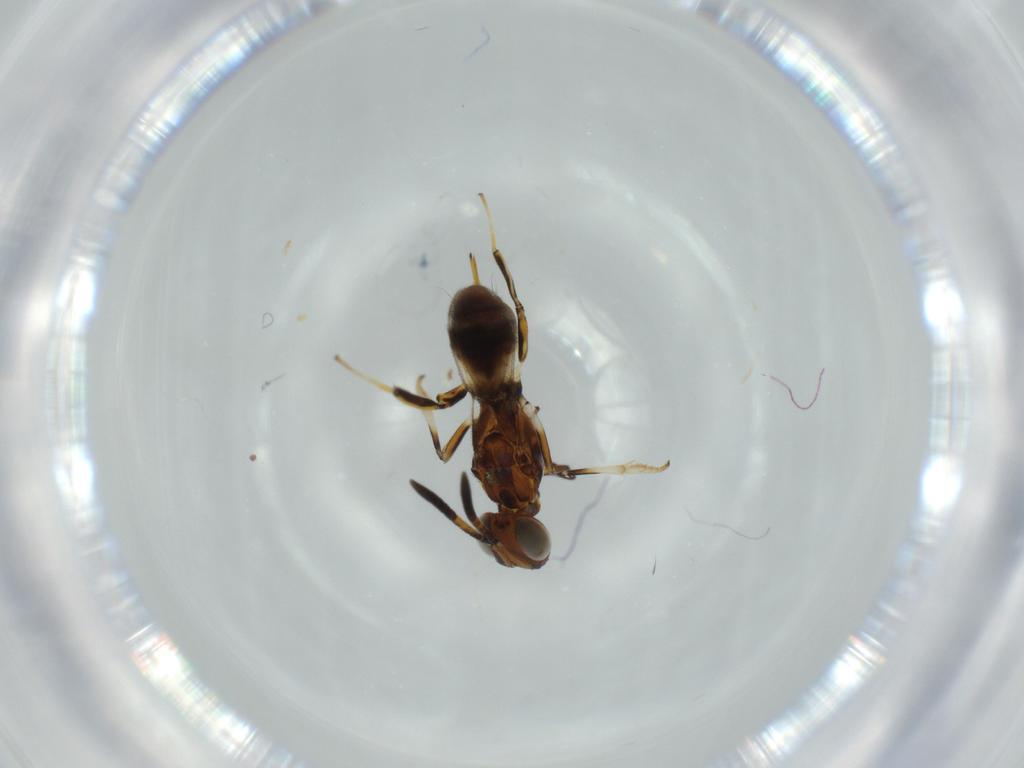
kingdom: Animalia
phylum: Arthropoda
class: Insecta
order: Hymenoptera
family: Eupelmidae
